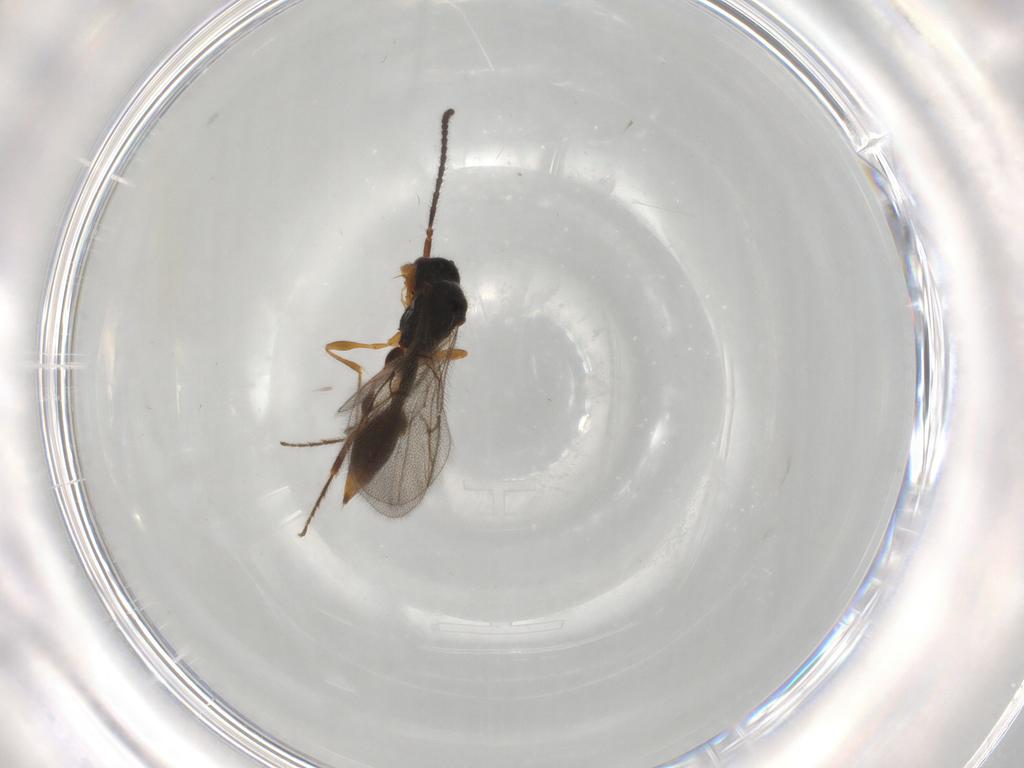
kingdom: Animalia
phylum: Arthropoda
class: Insecta
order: Hymenoptera
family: Diapriidae
